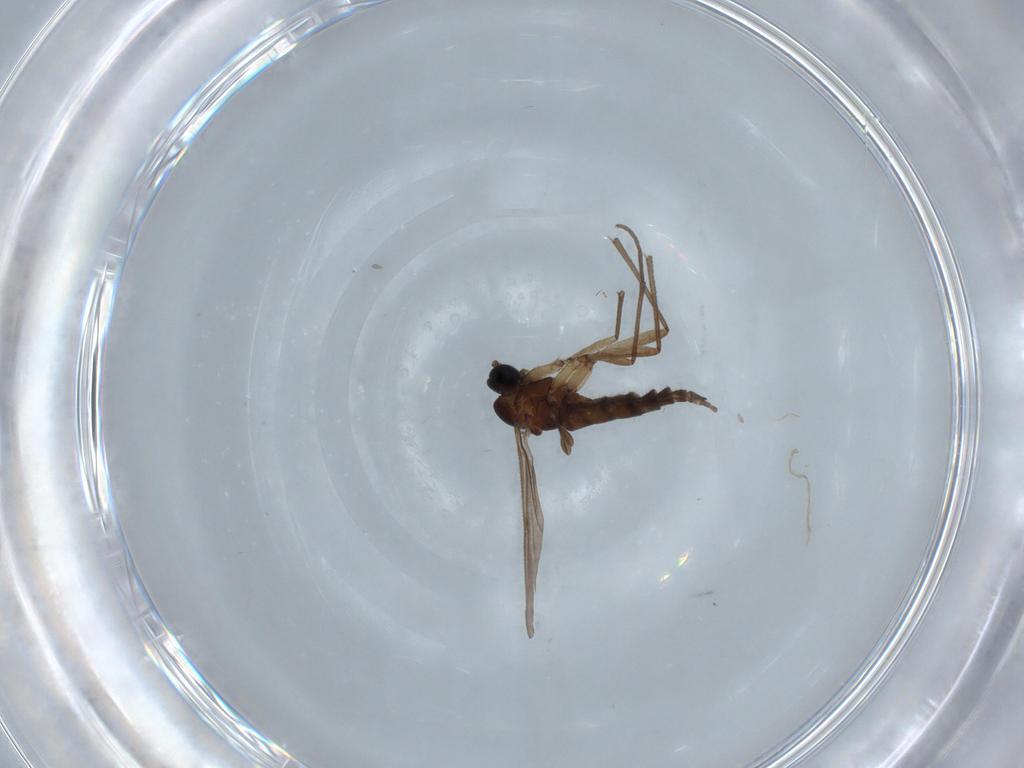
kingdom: Animalia
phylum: Arthropoda
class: Insecta
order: Diptera
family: Sciaridae
